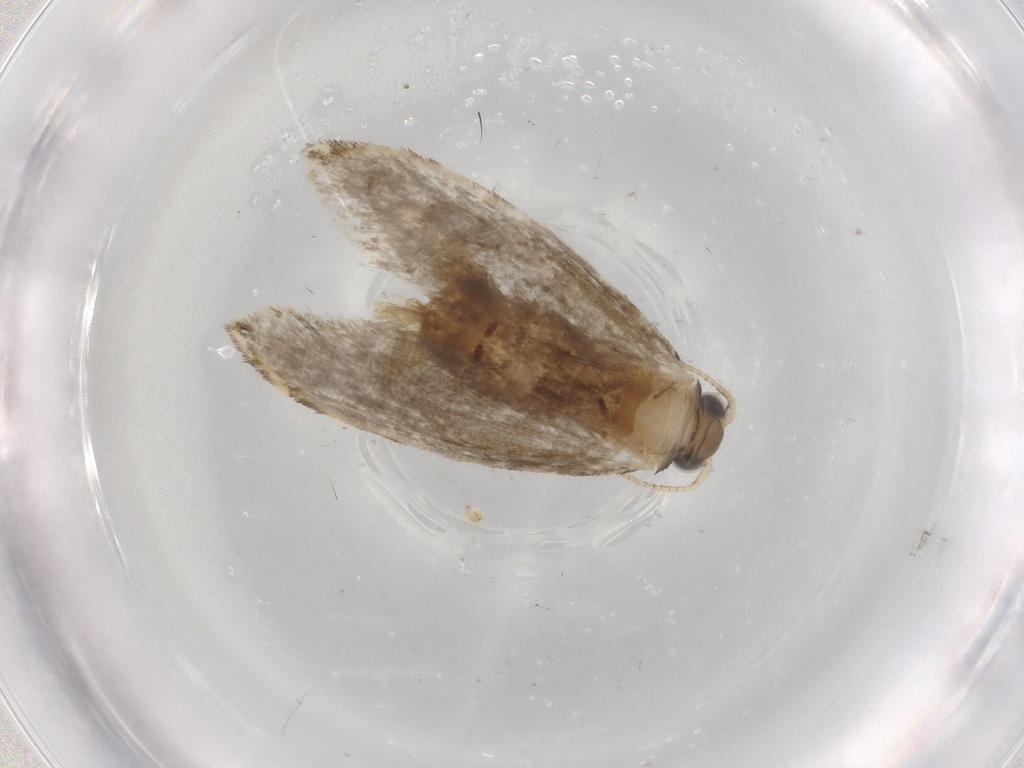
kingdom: Animalia
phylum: Arthropoda
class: Insecta
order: Lepidoptera
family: Tineidae
